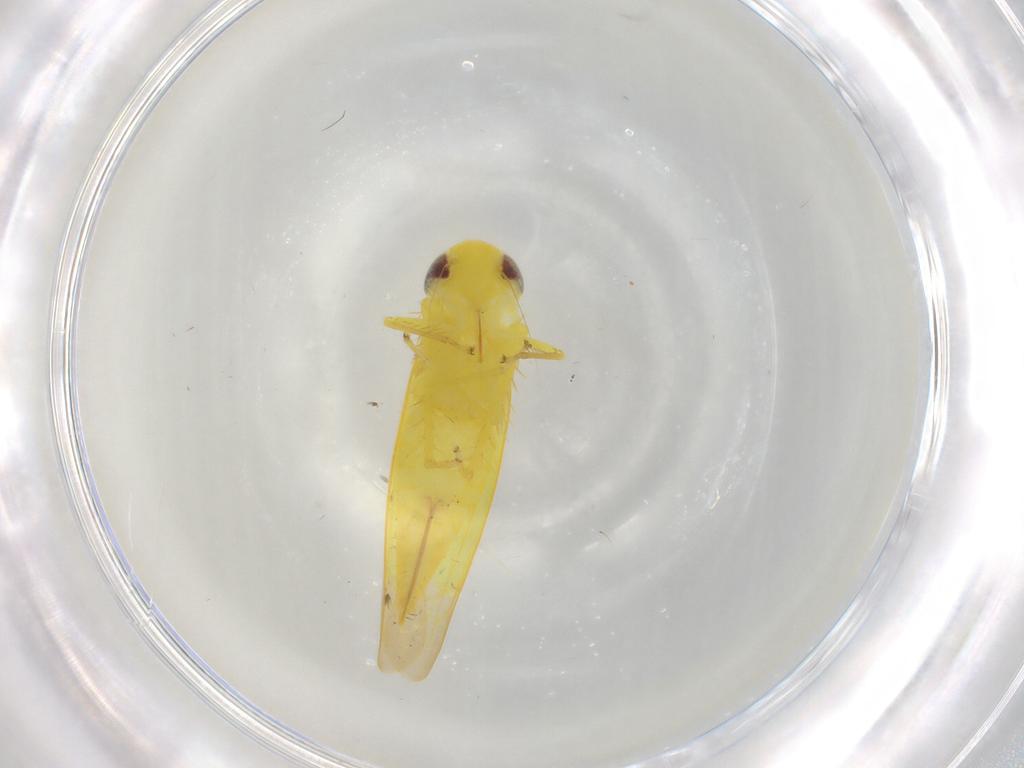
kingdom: Animalia
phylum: Arthropoda
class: Insecta
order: Hemiptera
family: Cicadellidae
